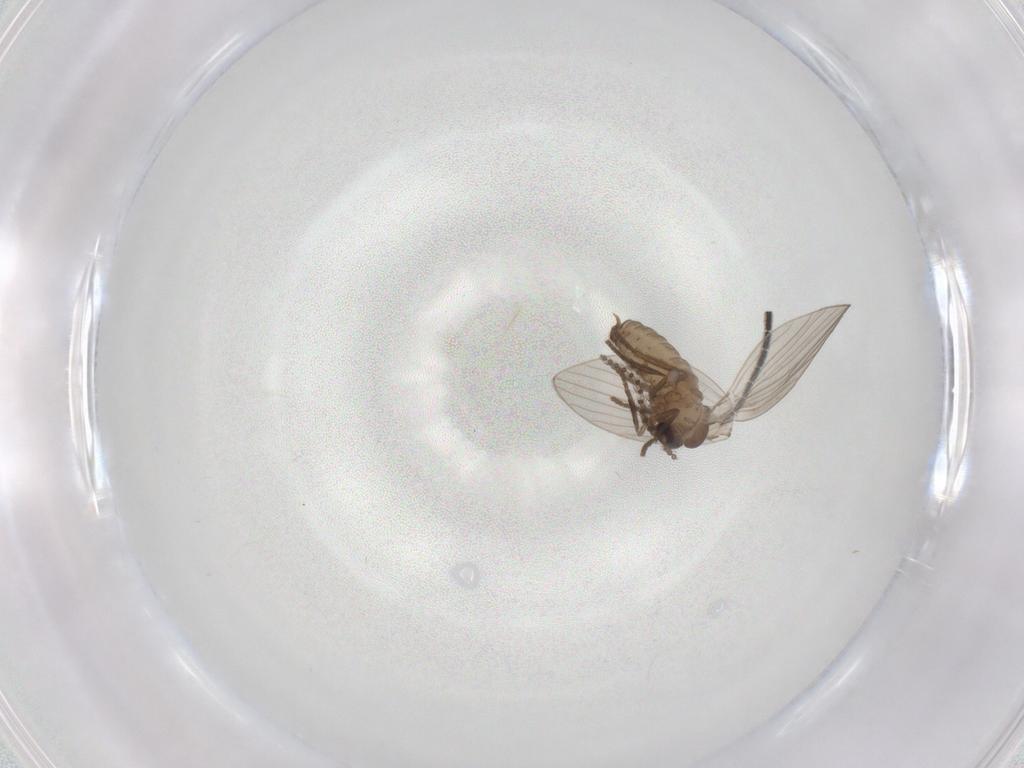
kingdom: Animalia
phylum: Arthropoda
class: Insecta
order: Diptera
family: Psychodidae
